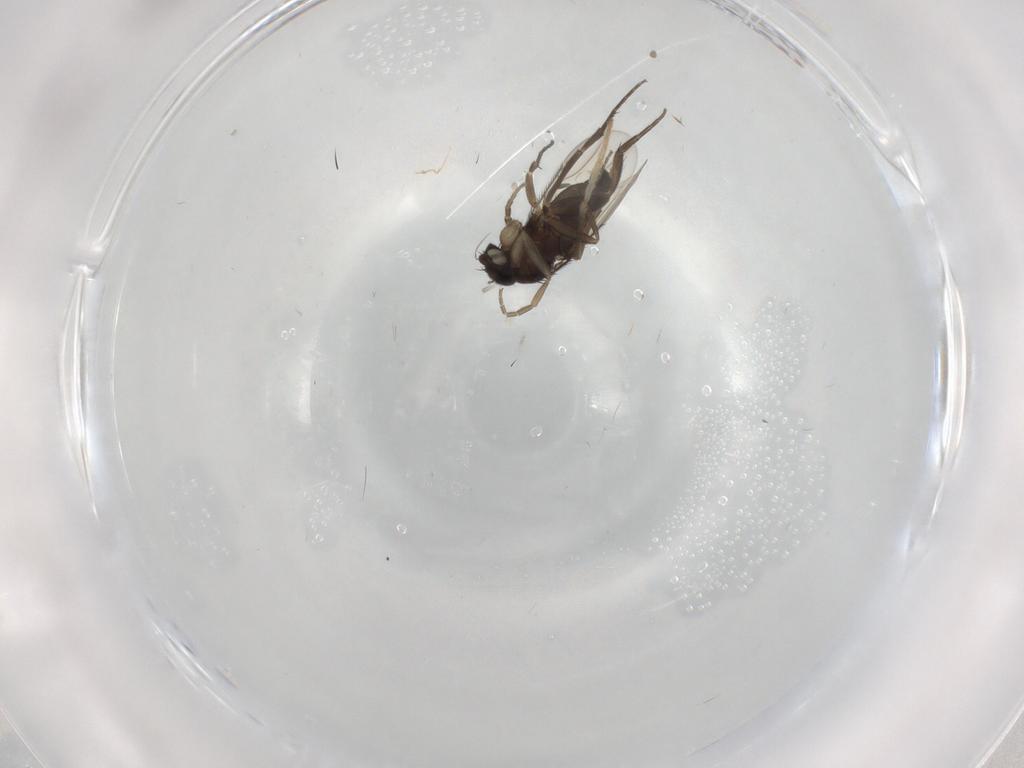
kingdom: Animalia
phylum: Arthropoda
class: Insecta
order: Diptera
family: Phoridae
